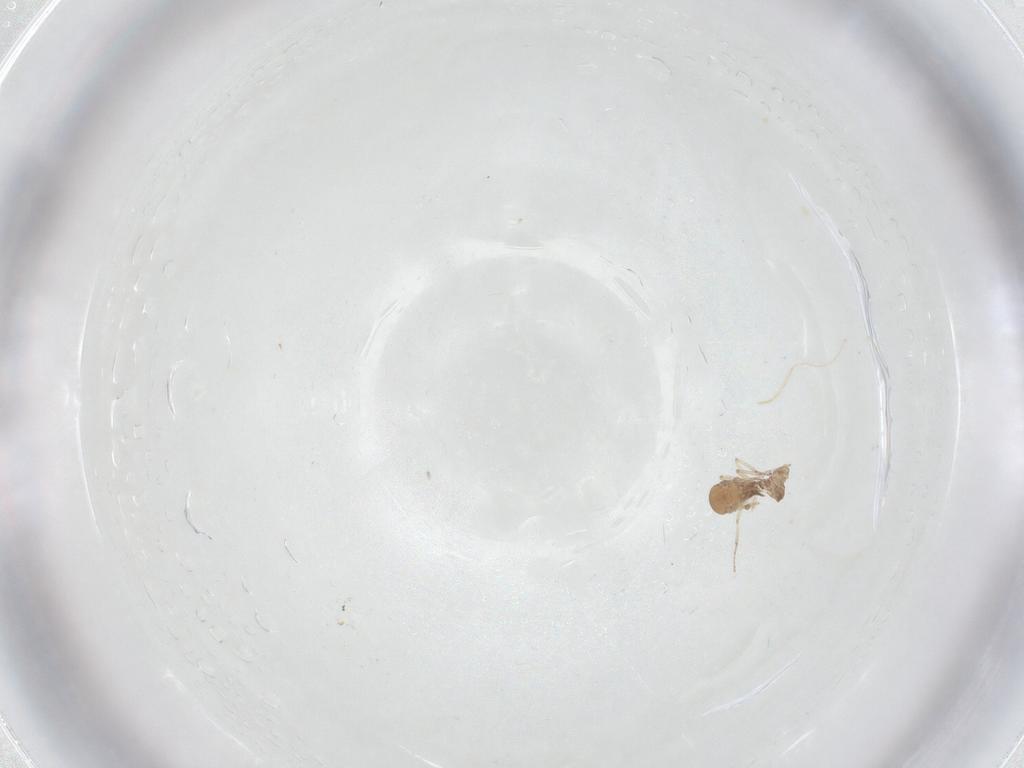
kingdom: Animalia
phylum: Arthropoda
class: Insecta
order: Diptera
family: Ceratopogonidae
